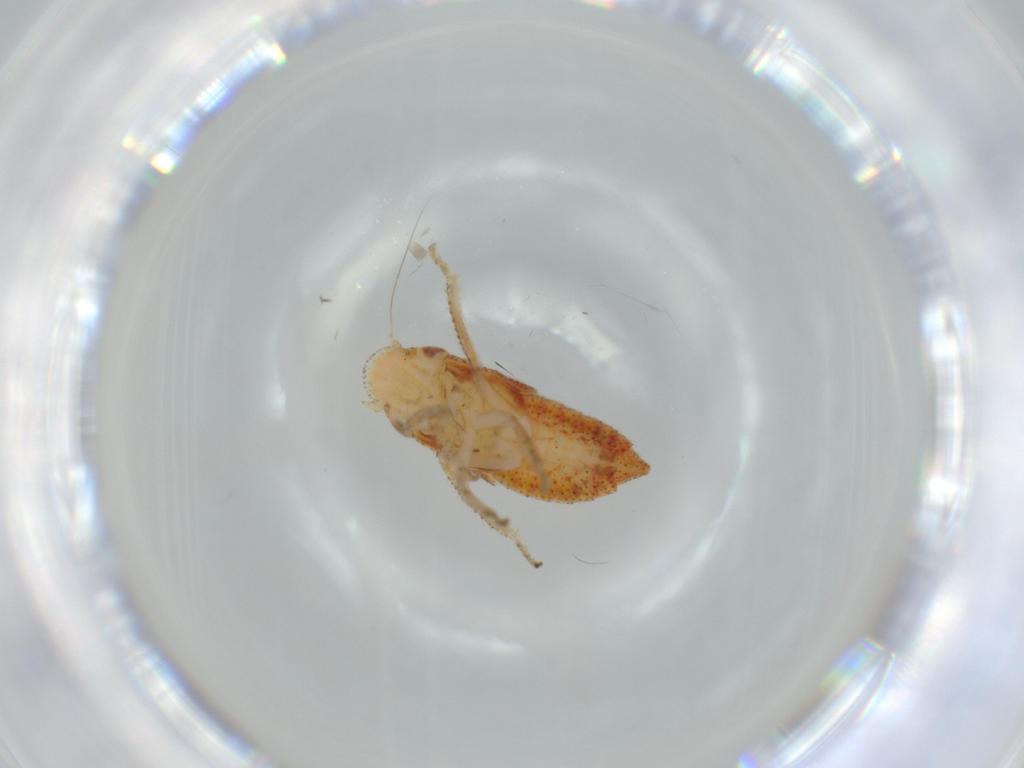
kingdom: Animalia
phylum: Arthropoda
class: Insecta
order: Hemiptera
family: Cicadellidae
